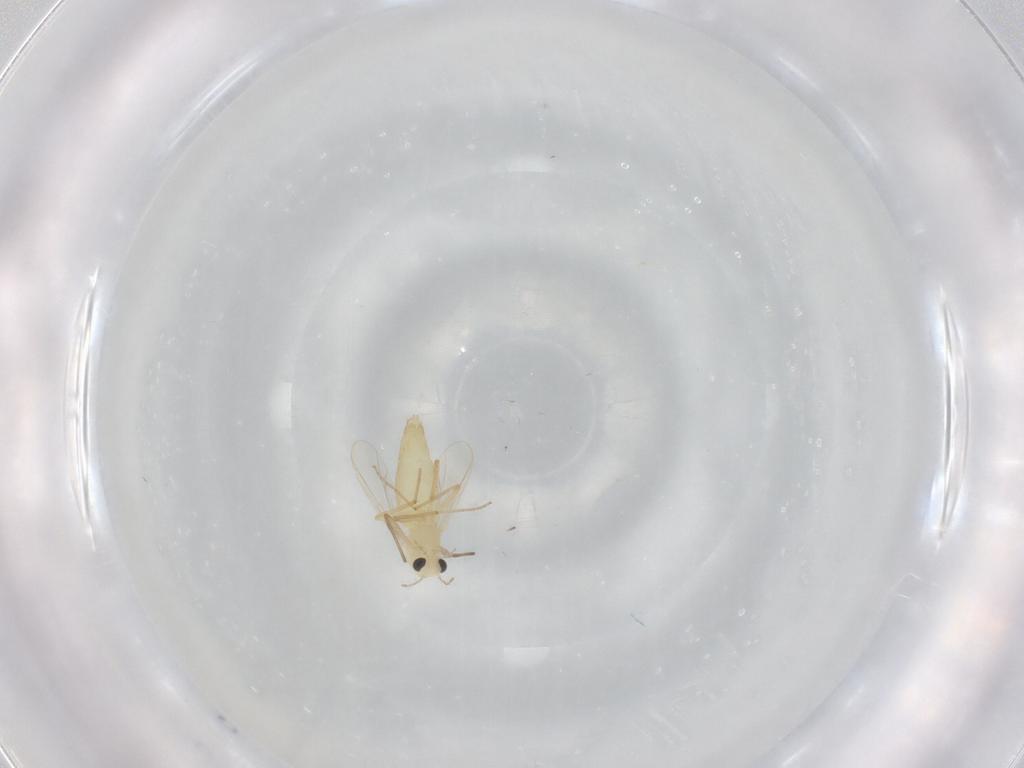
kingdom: Animalia
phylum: Arthropoda
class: Insecta
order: Diptera
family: Chironomidae
